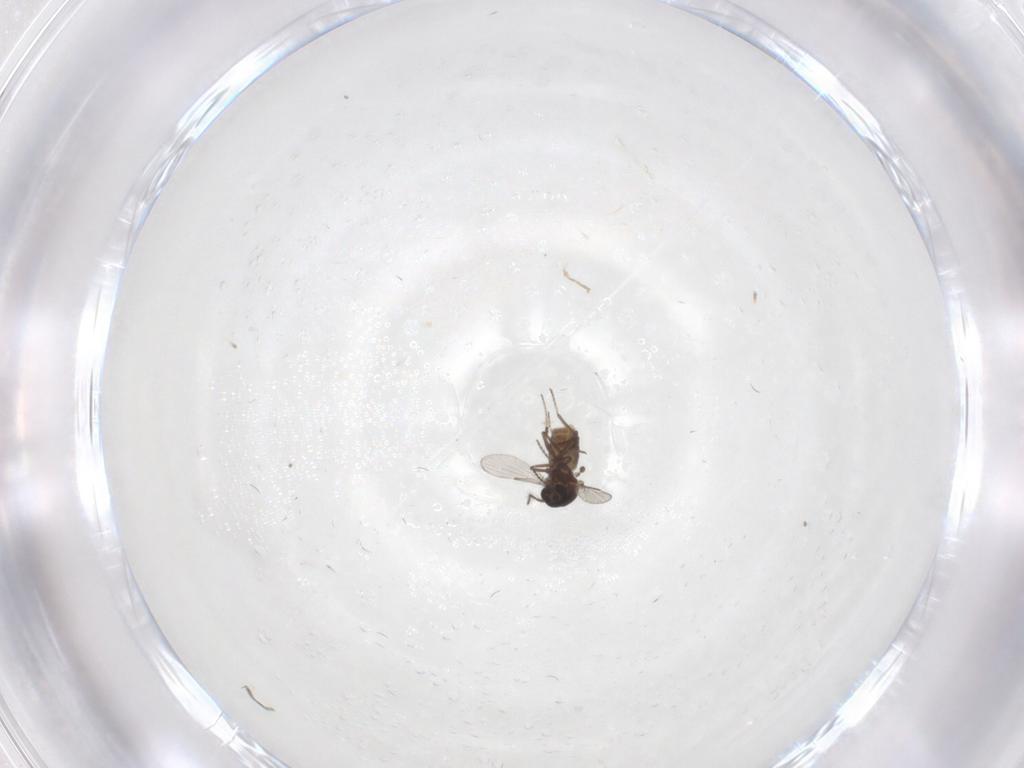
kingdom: Animalia
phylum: Arthropoda
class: Insecta
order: Diptera
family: Ceratopogonidae
